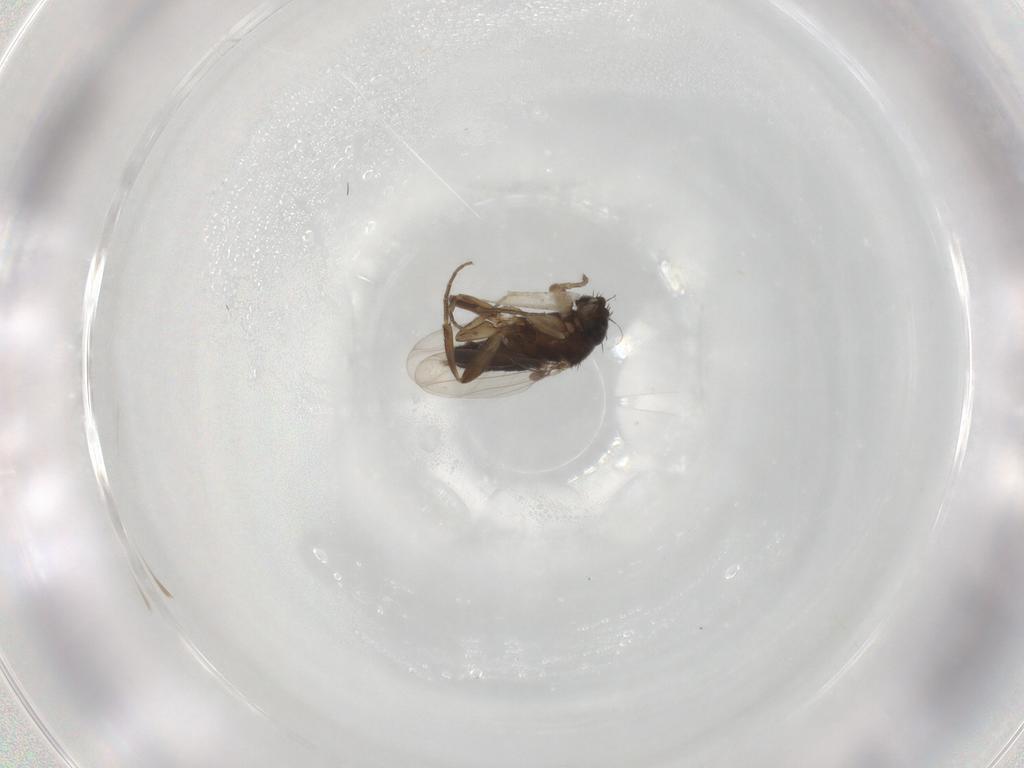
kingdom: Animalia
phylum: Arthropoda
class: Insecta
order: Diptera
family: Phoridae
